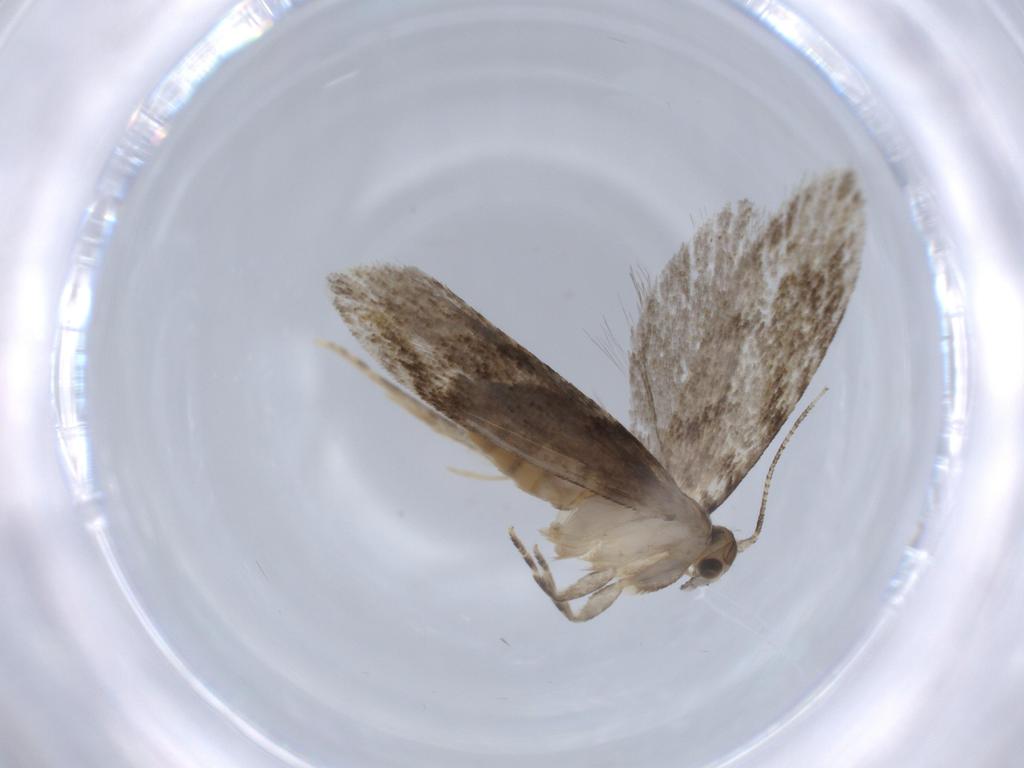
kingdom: Animalia
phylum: Arthropoda
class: Insecta
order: Lepidoptera
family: Tineidae
